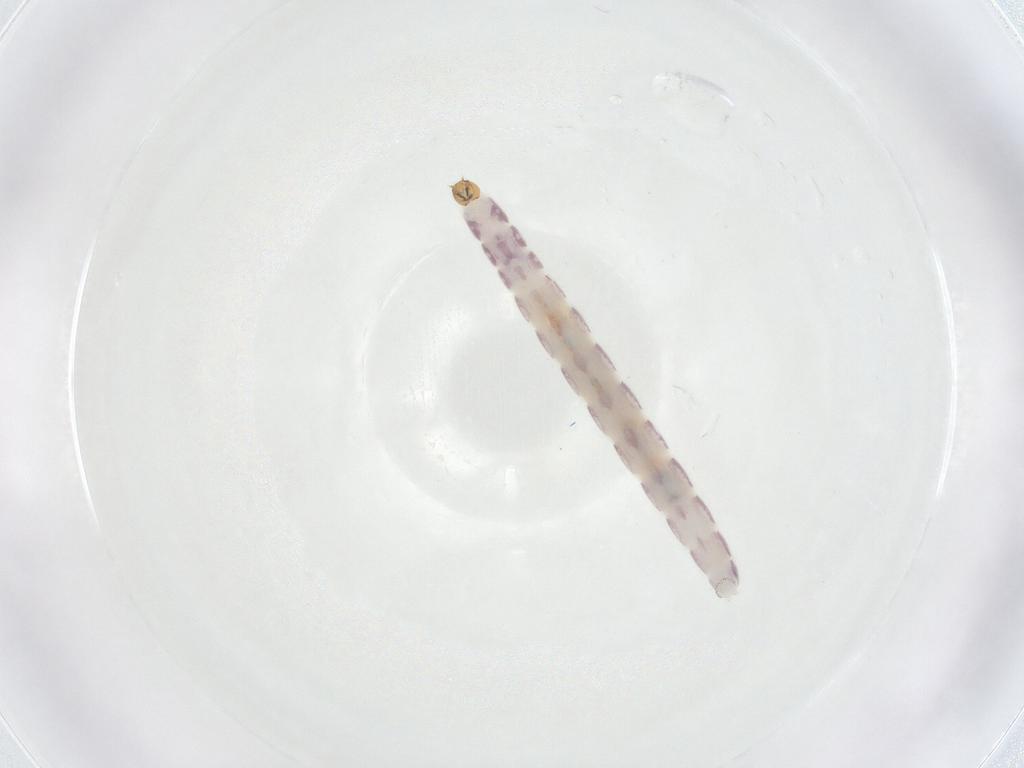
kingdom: Animalia
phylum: Arthropoda
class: Insecta
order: Diptera
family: Chironomidae
